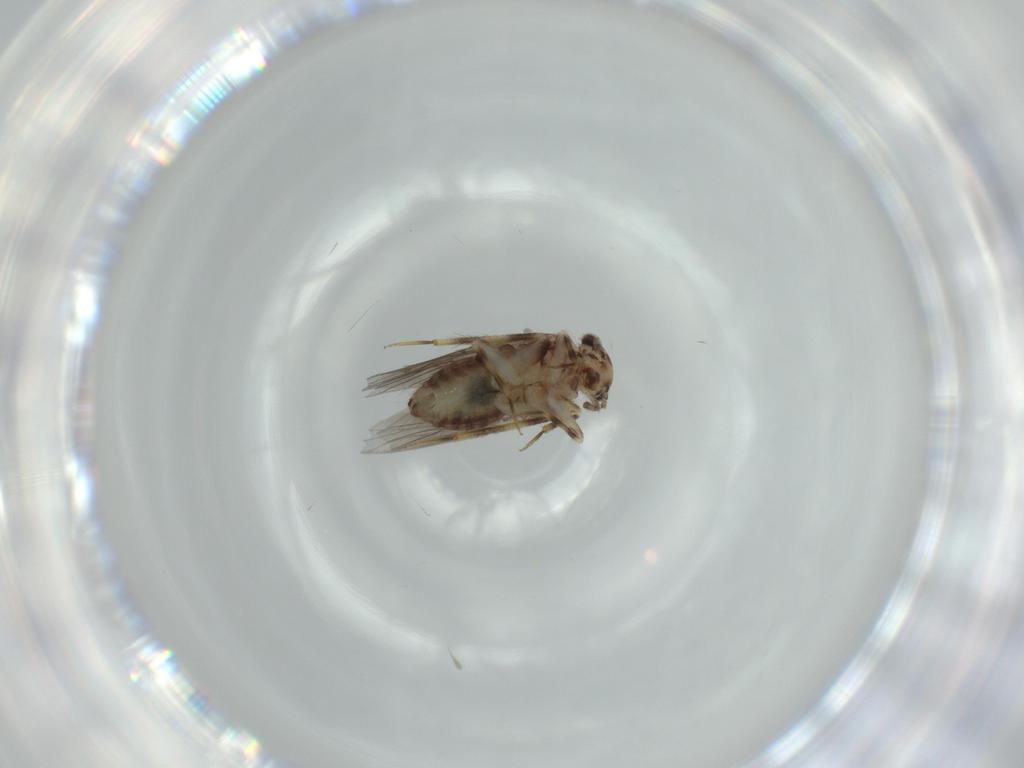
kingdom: Animalia
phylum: Arthropoda
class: Insecta
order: Psocodea
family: Lepidopsocidae
